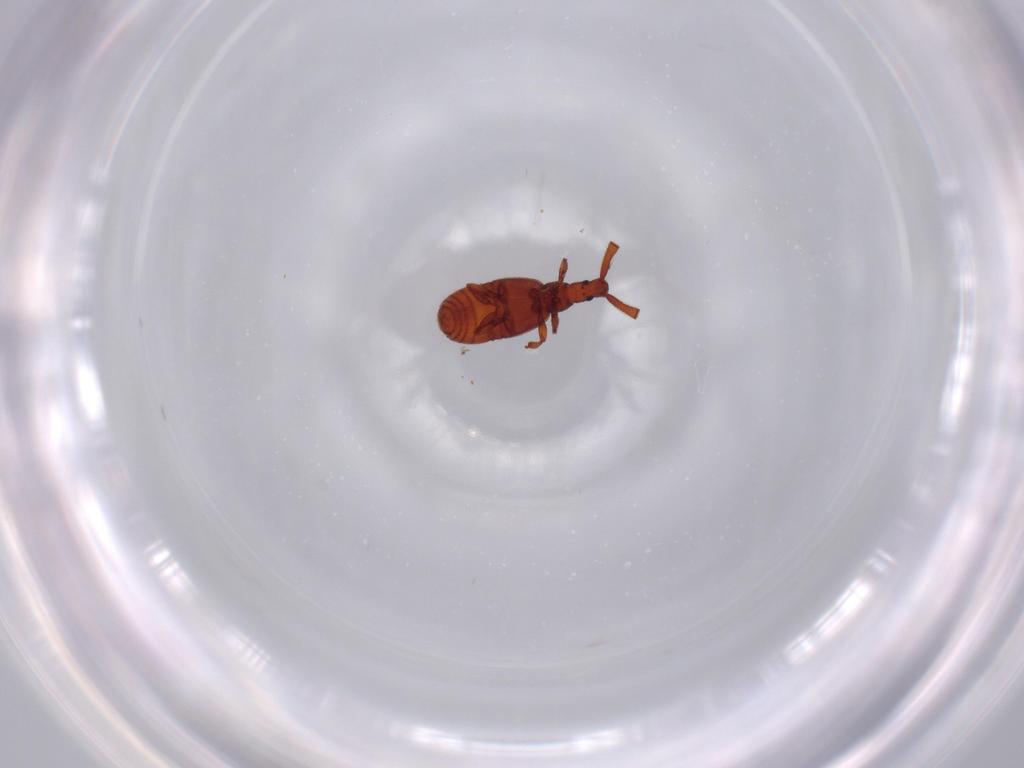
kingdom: Animalia
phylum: Arthropoda
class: Insecta
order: Coleoptera
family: Staphylinidae
